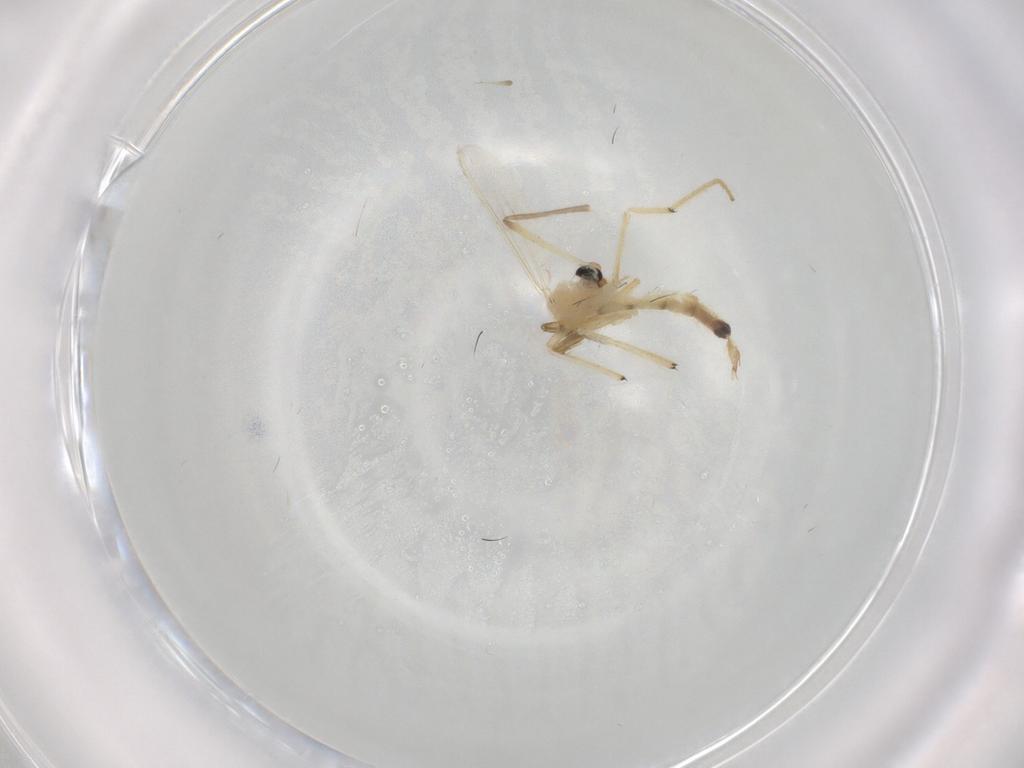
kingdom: Animalia
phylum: Arthropoda
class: Insecta
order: Diptera
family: Chironomidae
